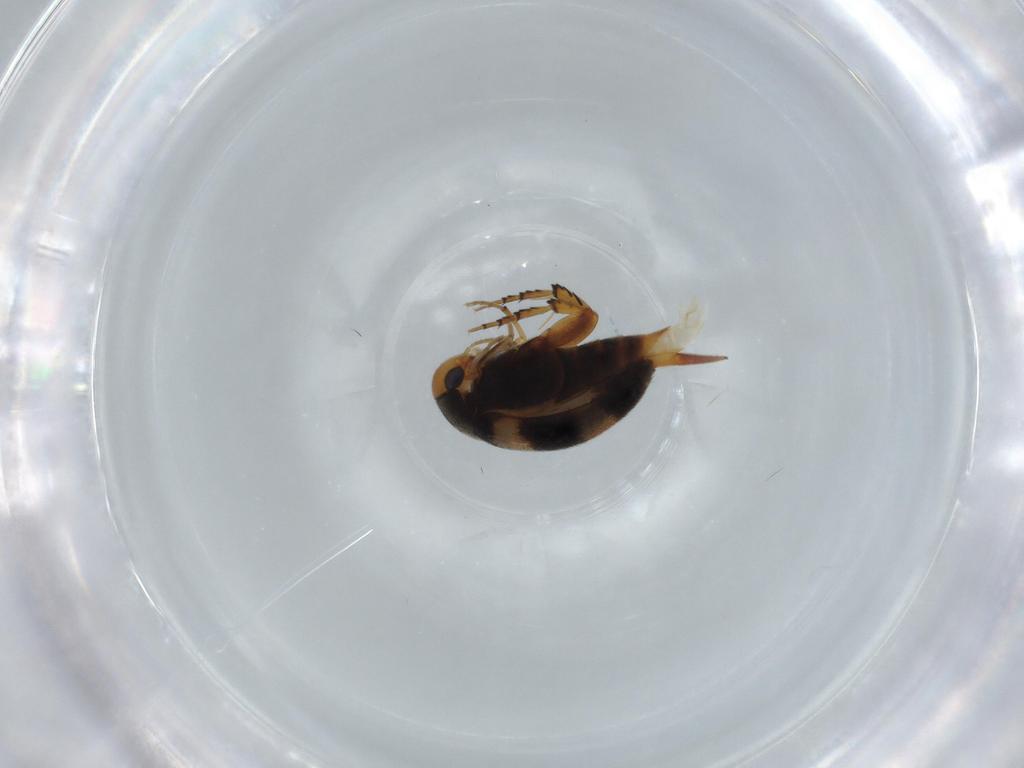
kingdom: Animalia
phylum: Arthropoda
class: Insecta
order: Coleoptera
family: Mordellidae
